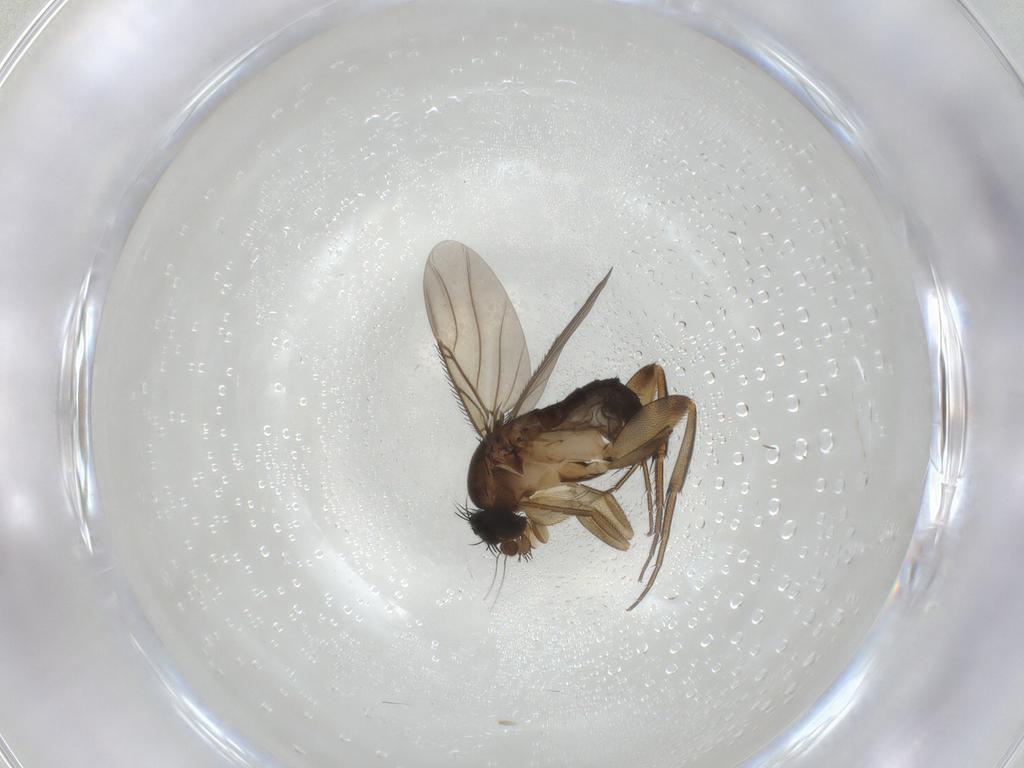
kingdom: Animalia
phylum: Arthropoda
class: Insecta
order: Diptera
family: Phoridae
